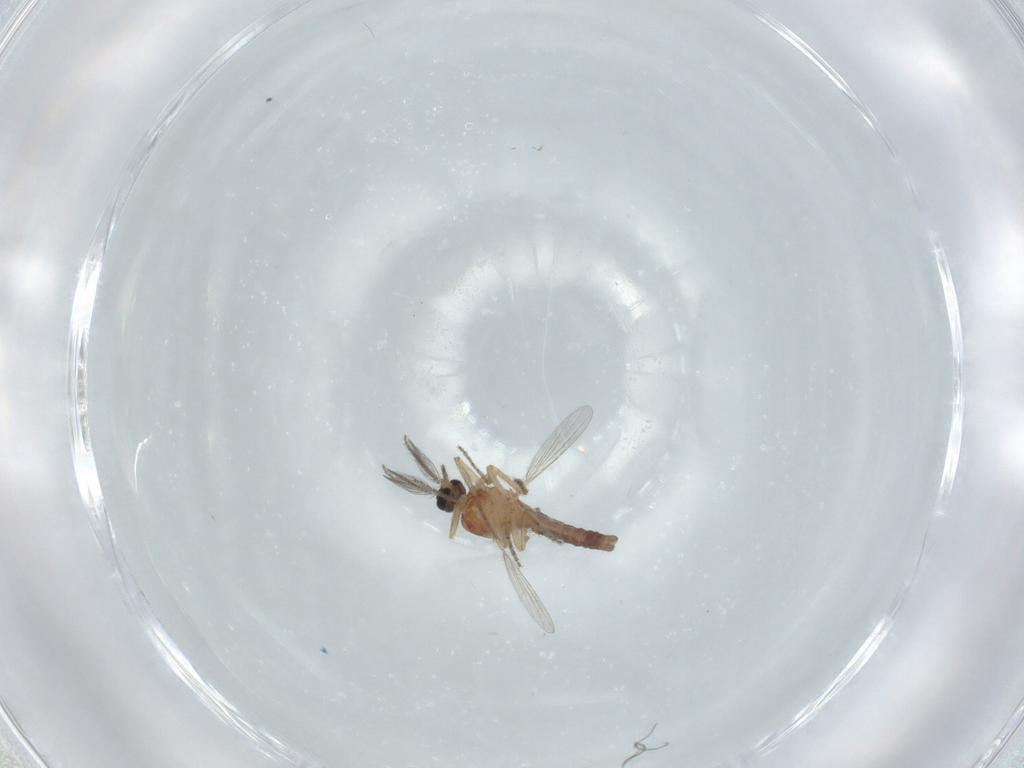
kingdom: Animalia
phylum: Arthropoda
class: Insecta
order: Diptera
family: Ceratopogonidae
